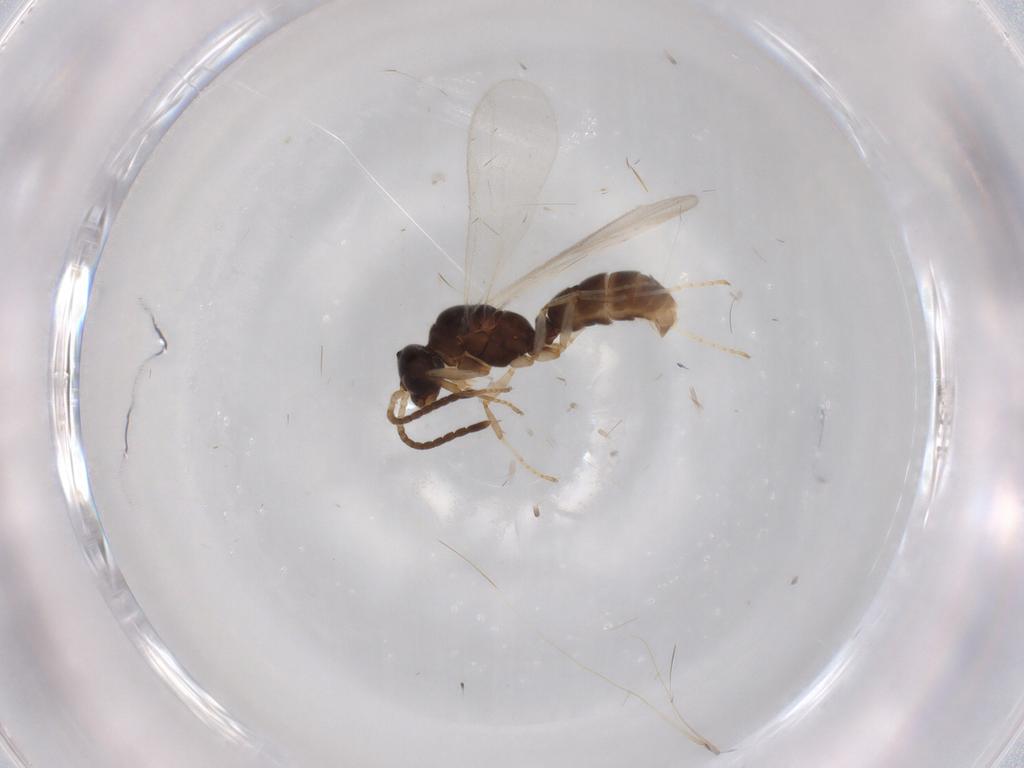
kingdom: Animalia
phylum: Arthropoda
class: Insecta
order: Hymenoptera
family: Formicidae
